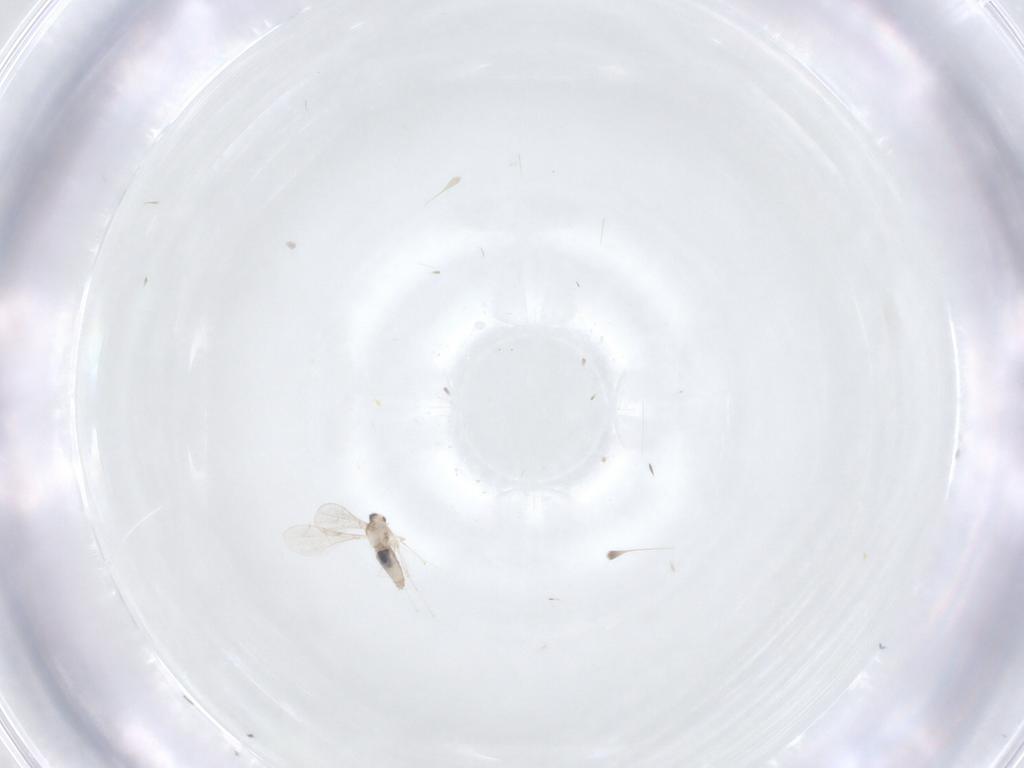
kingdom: Animalia
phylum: Arthropoda
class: Insecta
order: Diptera
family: Cecidomyiidae
